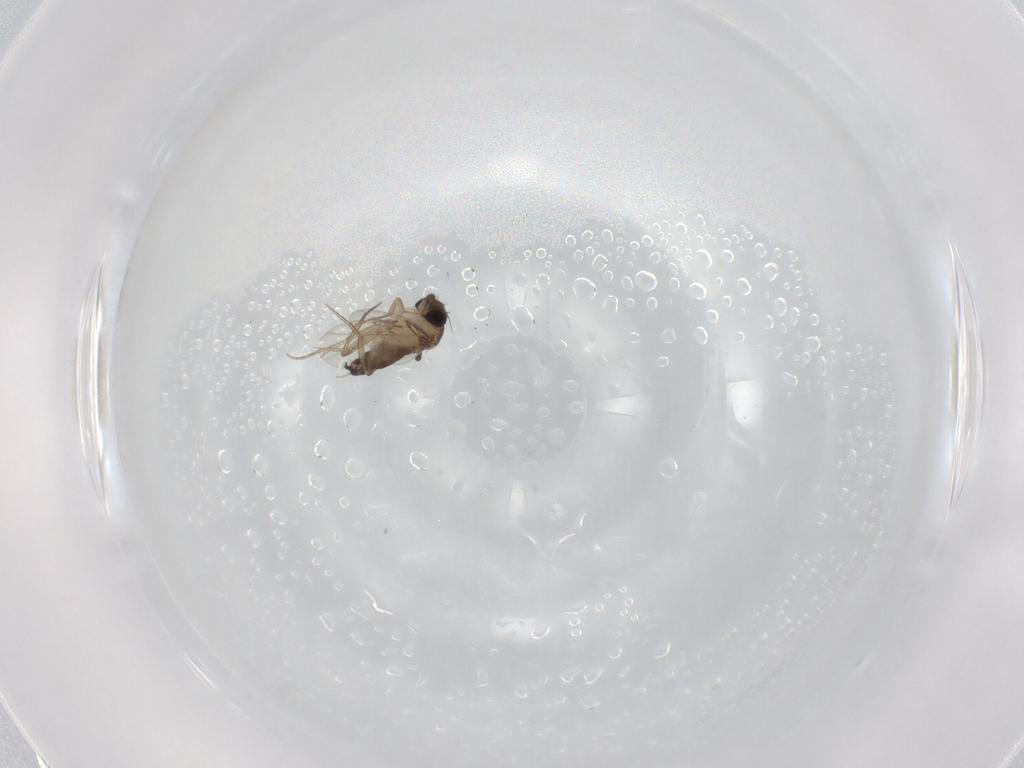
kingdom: Animalia
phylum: Arthropoda
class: Insecta
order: Diptera
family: Phoridae
